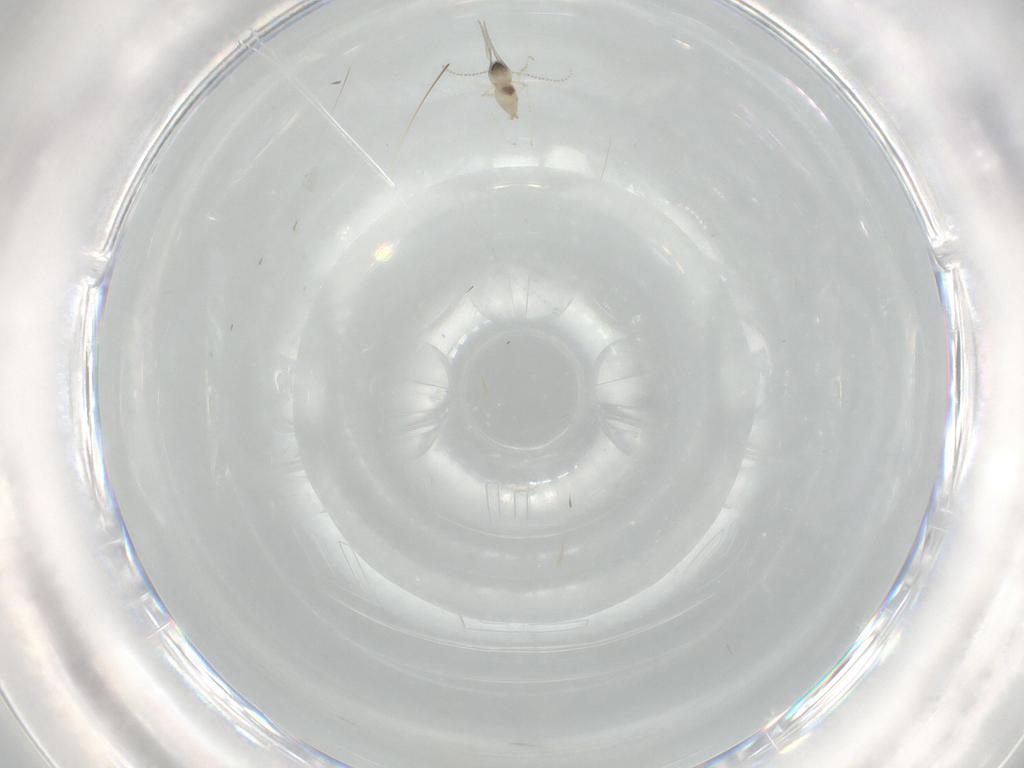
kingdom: Animalia
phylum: Arthropoda
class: Insecta
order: Diptera
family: Cecidomyiidae
